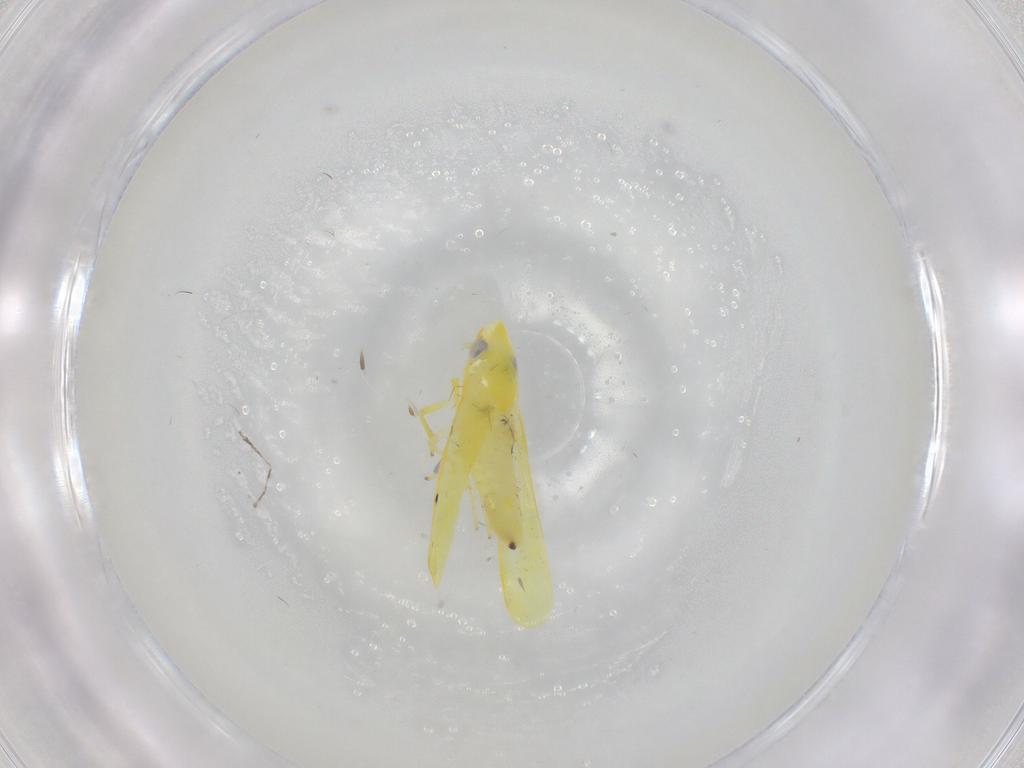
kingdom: Animalia
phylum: Arthropoda
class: Insecta
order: Hemiptera
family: Cicadellidae
